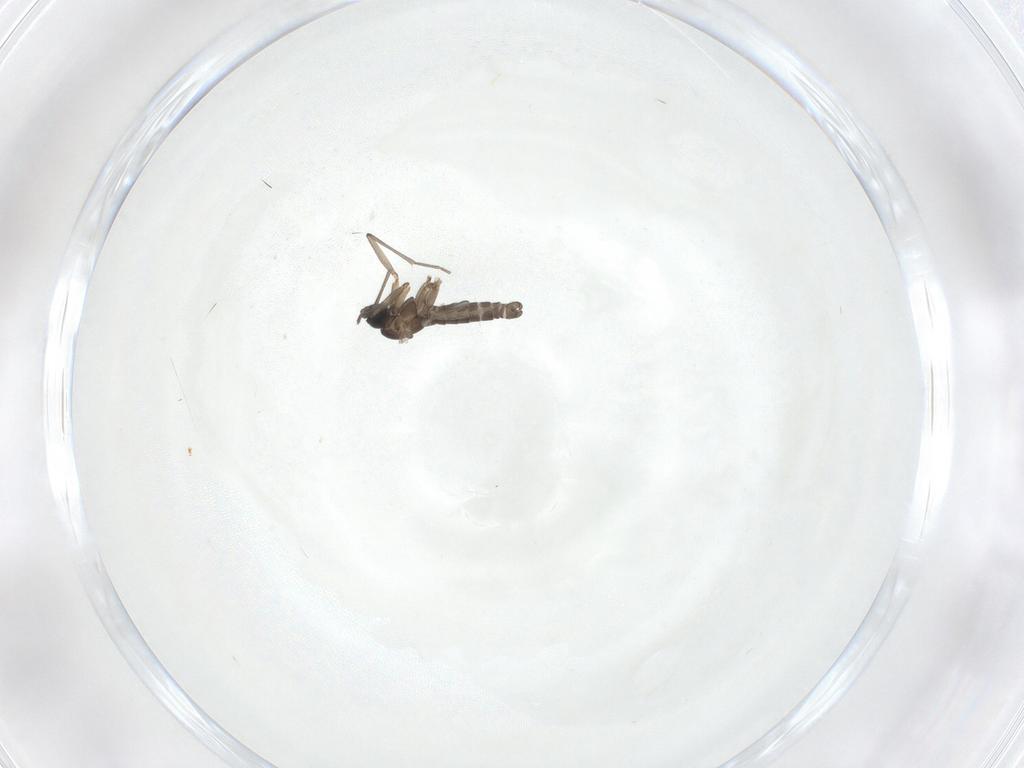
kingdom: Animalia
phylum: Arthropoda
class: Insecta
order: Diptera
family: Sciaridae
